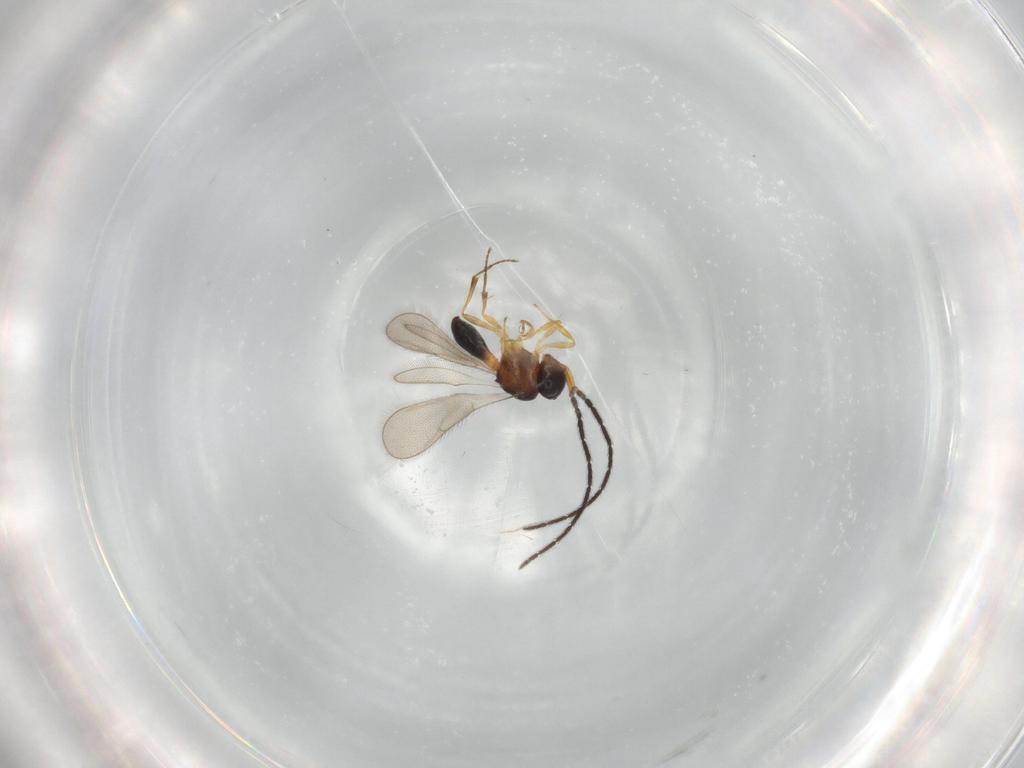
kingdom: Animalia
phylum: Arthropoda
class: Insecta
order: Hymenoptera
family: Scelionidae
